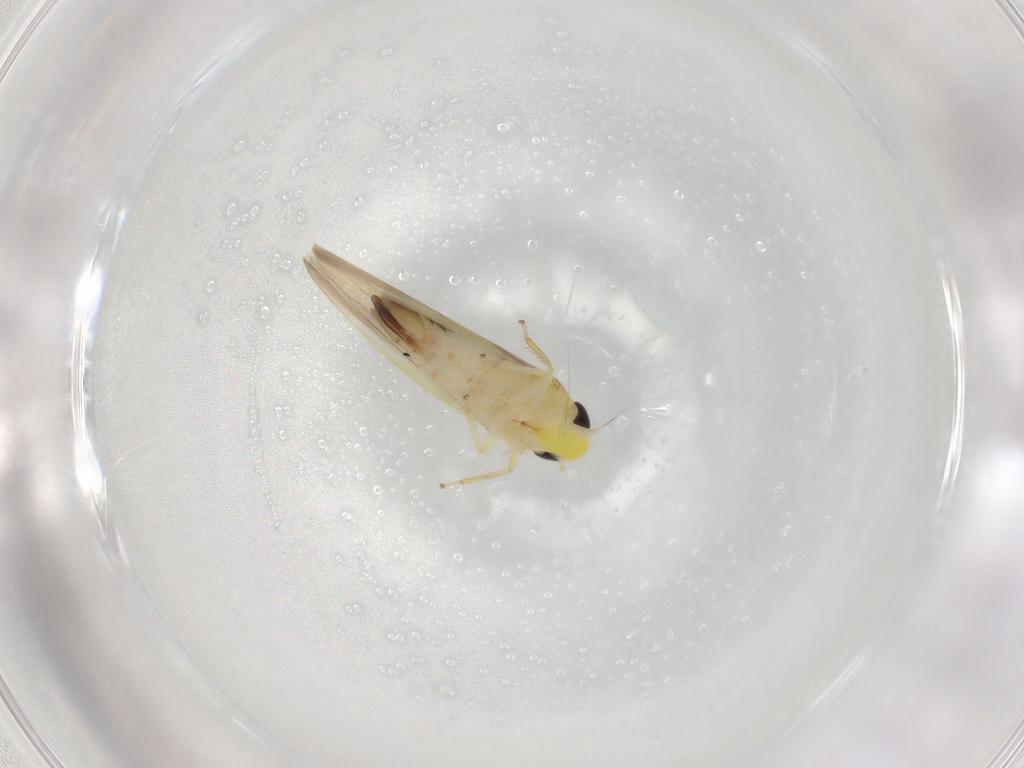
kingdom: Animalia
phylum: Arthropoda
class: Insecta
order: Hemiptera
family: Cicadellidae
